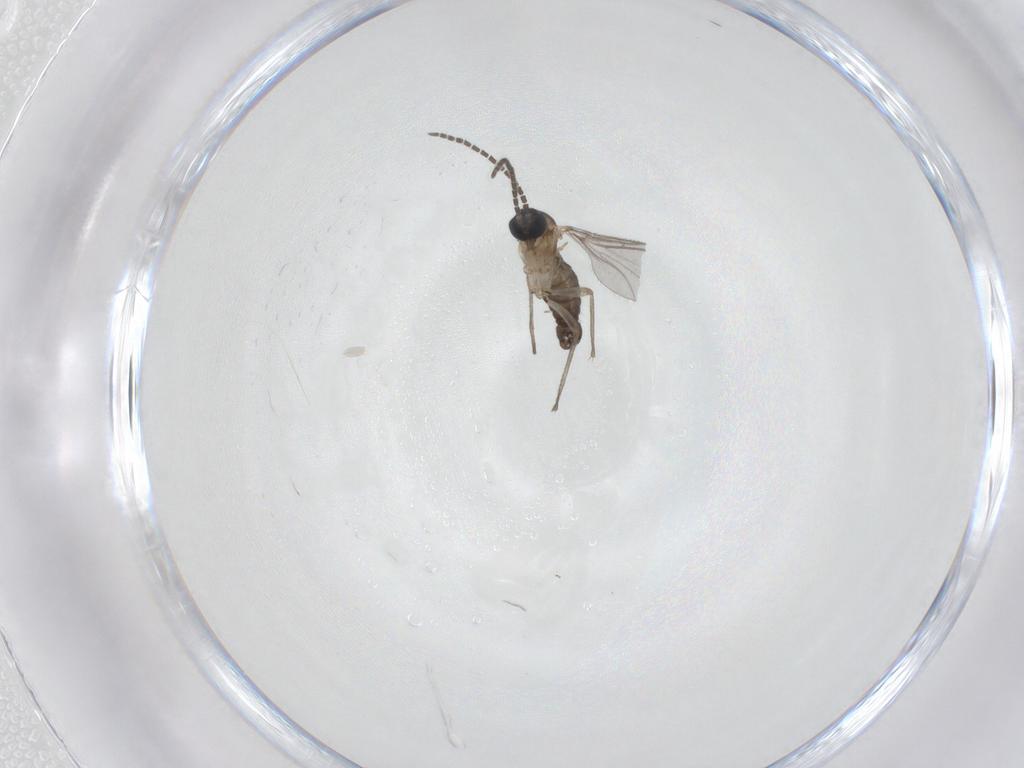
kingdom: Animalia
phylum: Arthropoda
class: Insecta
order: Diptera
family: Sciaridae
